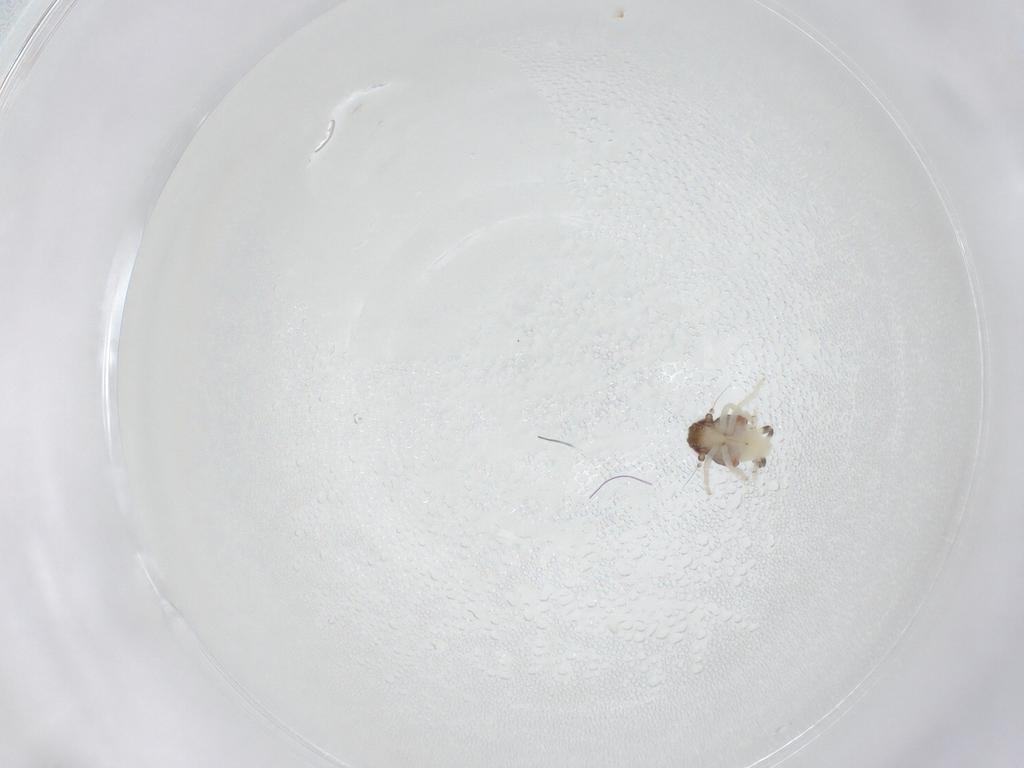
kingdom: Animalia
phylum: Arthropoda
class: Insecta
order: Hemiptera
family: Nogodinidae
